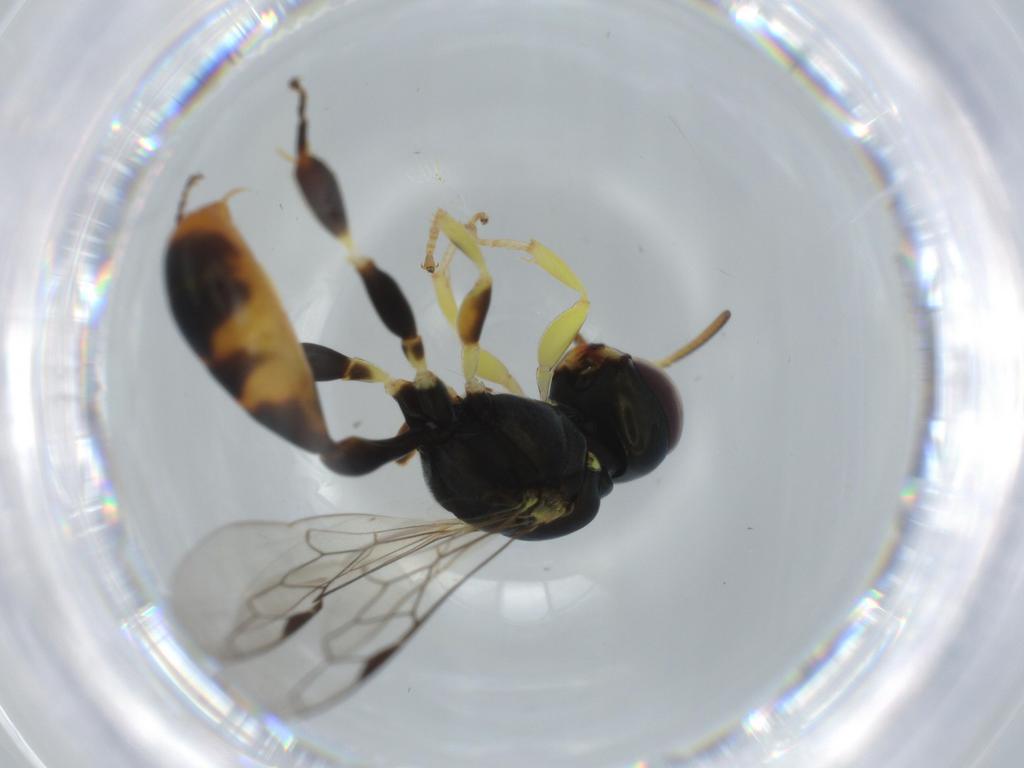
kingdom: Animalia
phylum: Arthropoda
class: Insecta
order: Hymenoptera
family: Crabronidae
